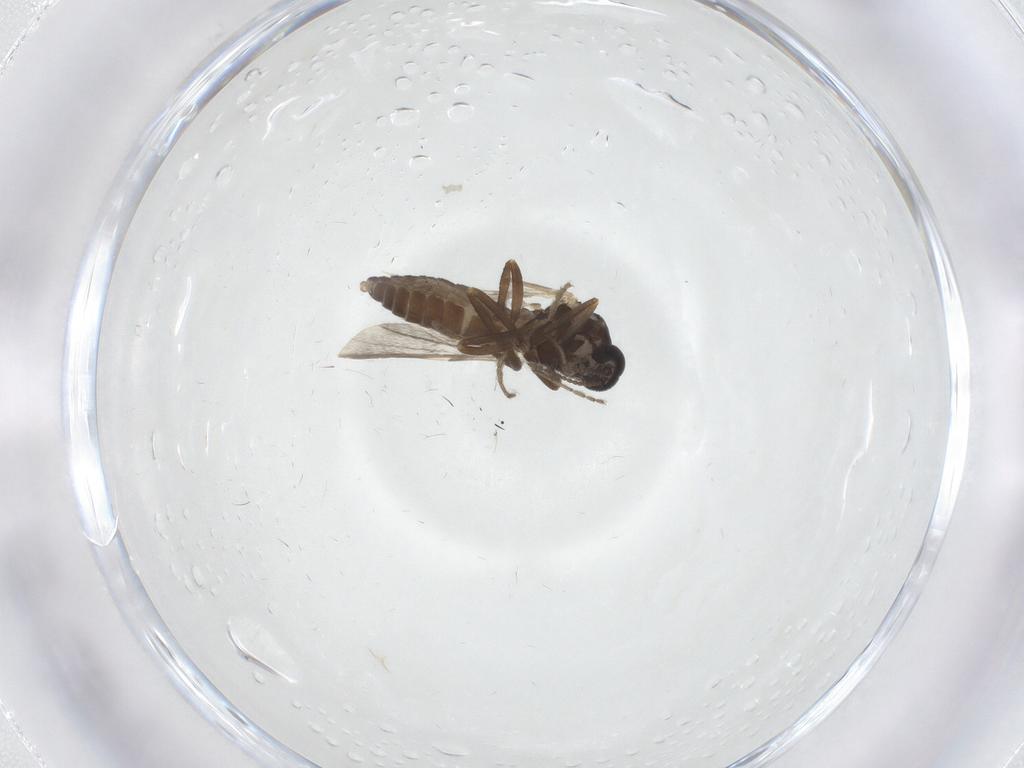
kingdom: Animalia
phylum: Arthropoda
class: Insecta
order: Diptera
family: Ceratopogonidae
